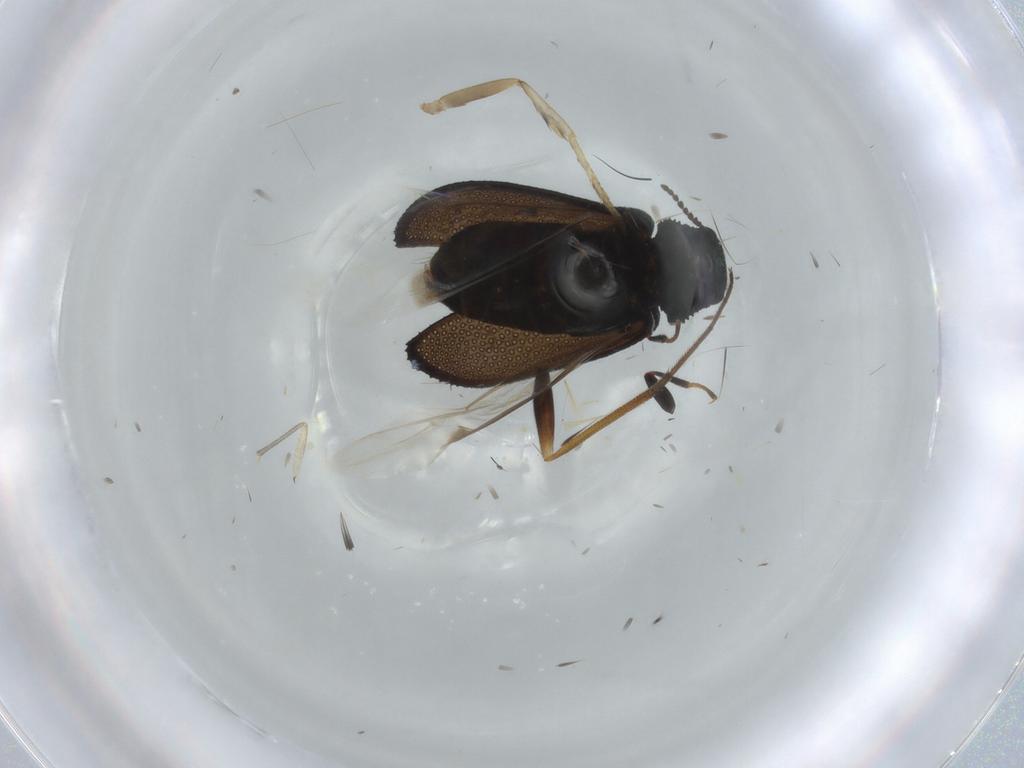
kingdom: Animalia
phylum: Arthropoda
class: Insecta
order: Coleoptera
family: Dasytidae
